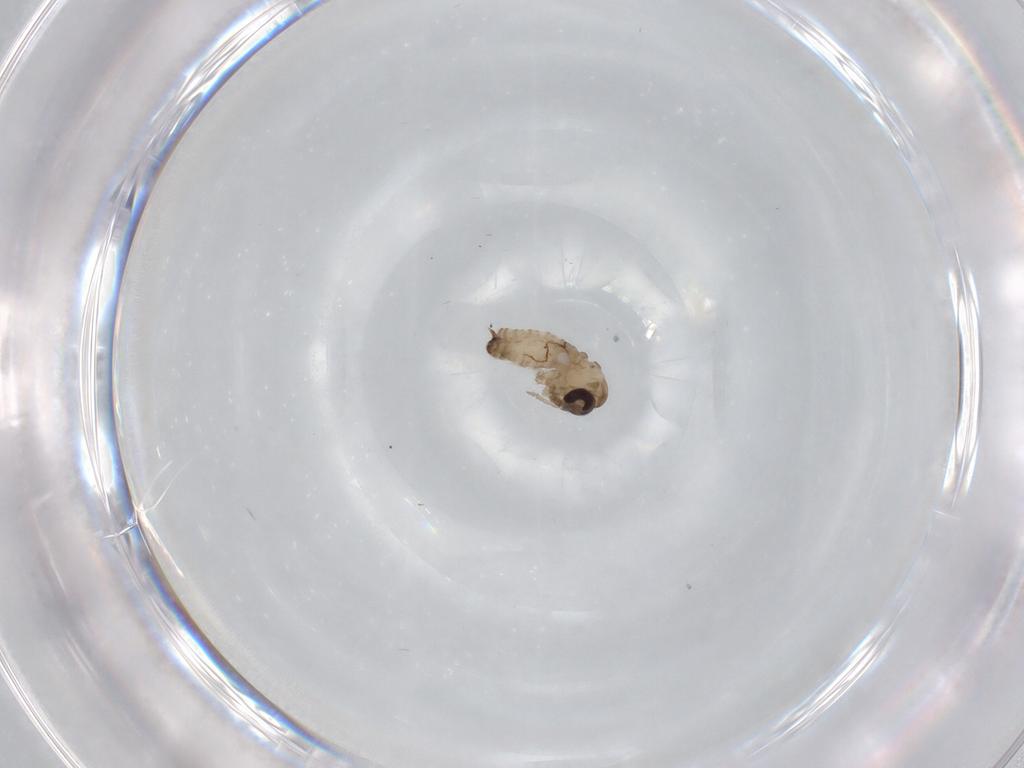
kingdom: Animalia
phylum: Arthropoda
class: Insecta
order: Diptera
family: Psychodidae
